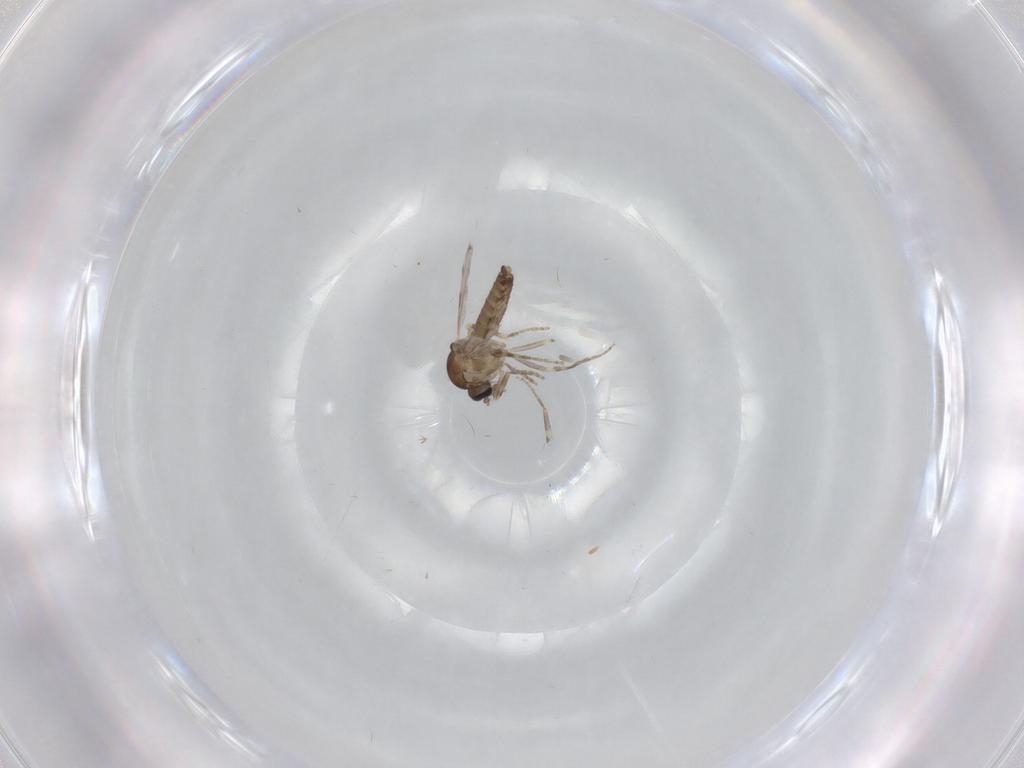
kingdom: Animalia
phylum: Arthropoda
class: Insecta
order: Diptera
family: Ceratopogonidae
